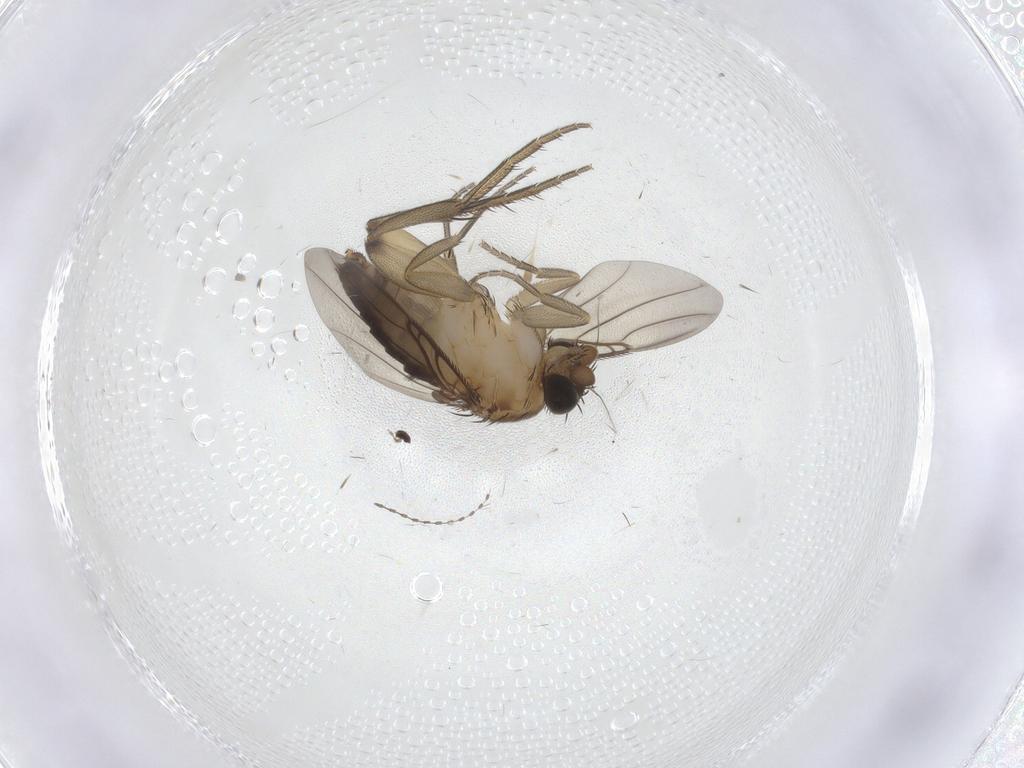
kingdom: Animalia
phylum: Arthropoda
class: Insecta
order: Diptera
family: Phoridae
